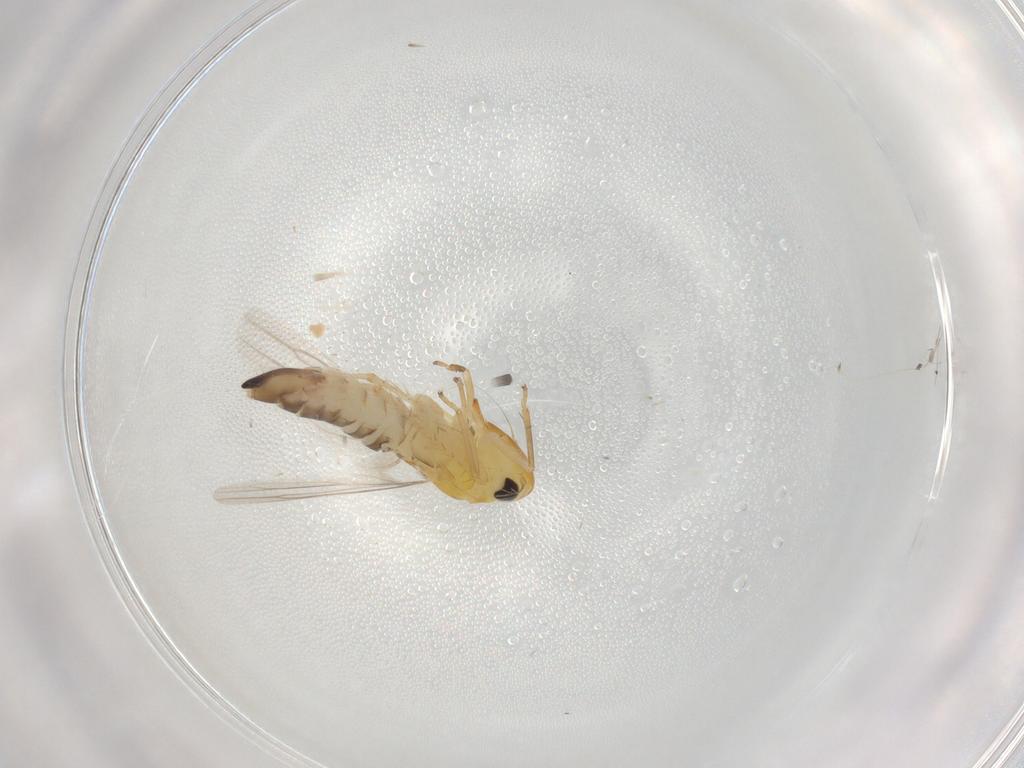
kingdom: Animalia
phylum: Arthropoda
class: Insecta
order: Hemiptera
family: Cicadellidae
